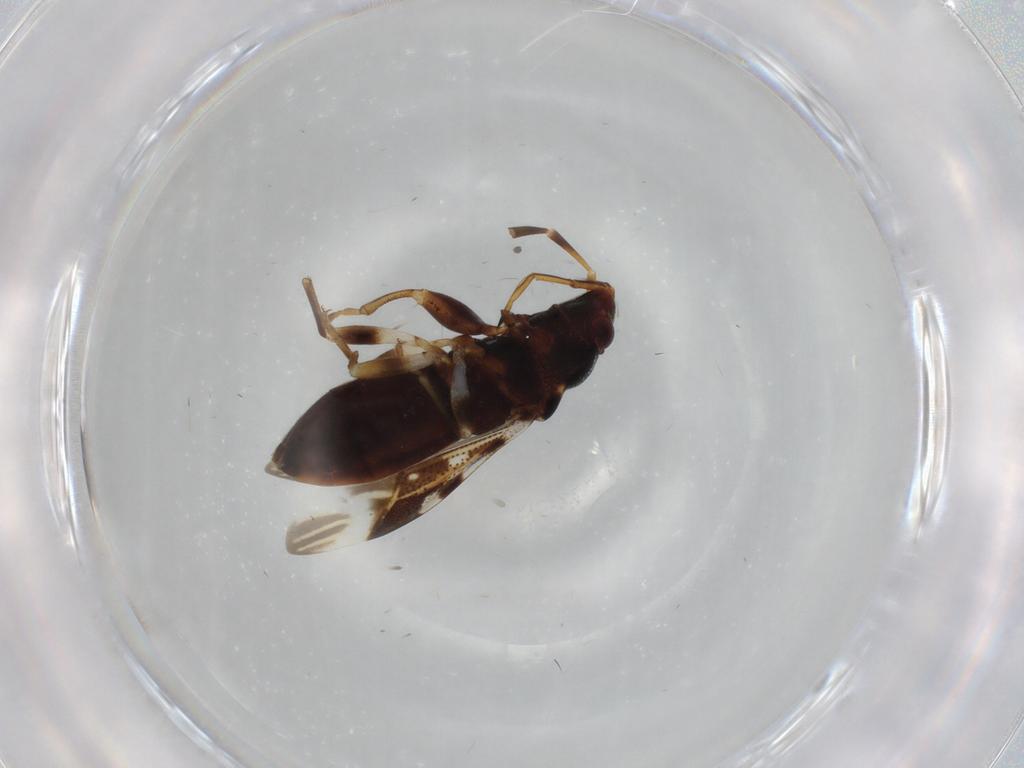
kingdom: Animalia
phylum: Arthropoda
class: Insecta
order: Hemiptera
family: Rhyparochromidae
